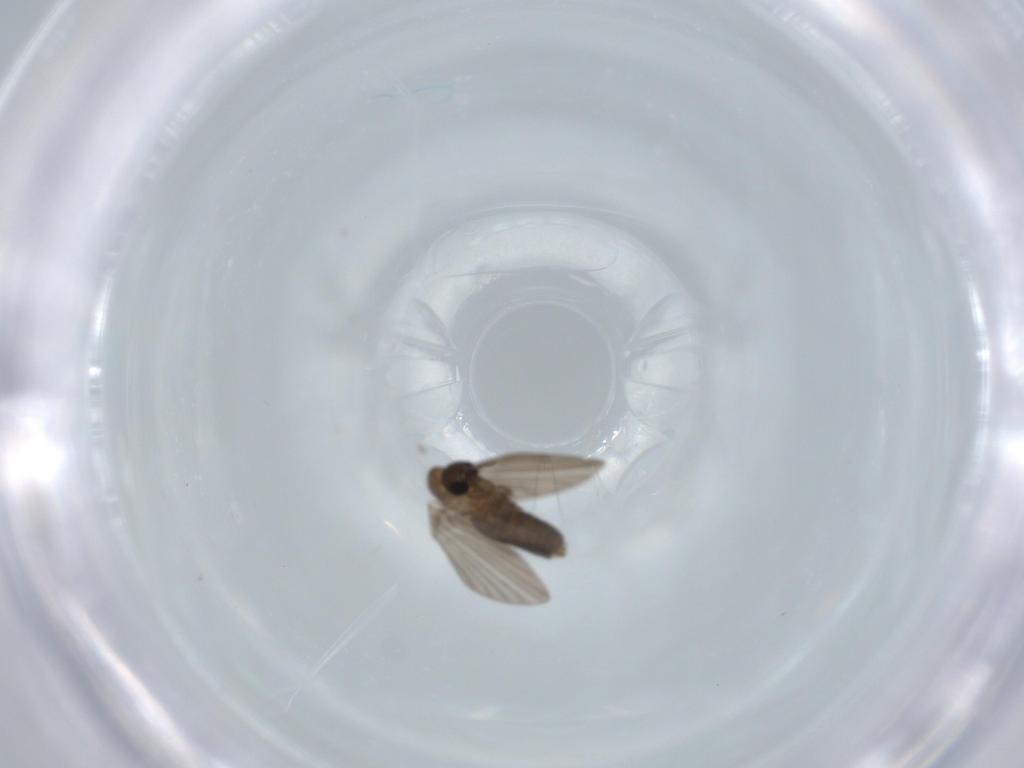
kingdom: Animalia
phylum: Arthropoda
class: Insecta
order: Diptera
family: Psychodidae
